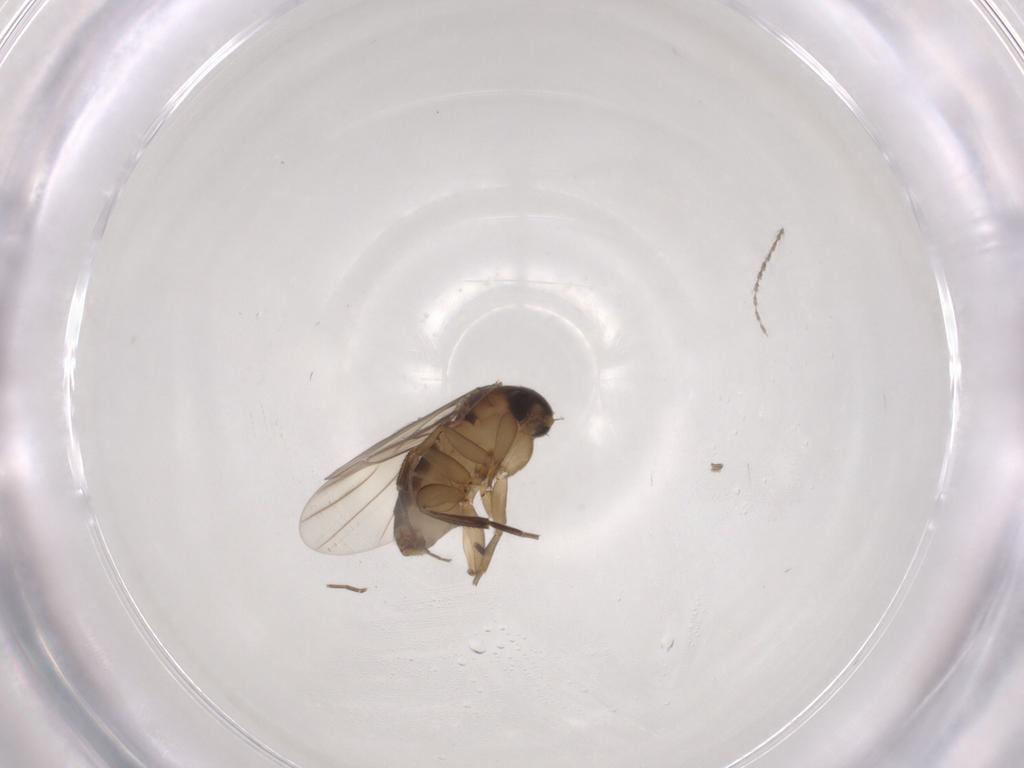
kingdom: Animalia
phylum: Arthropoda
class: Insecta
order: Diptera
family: Phoridae
